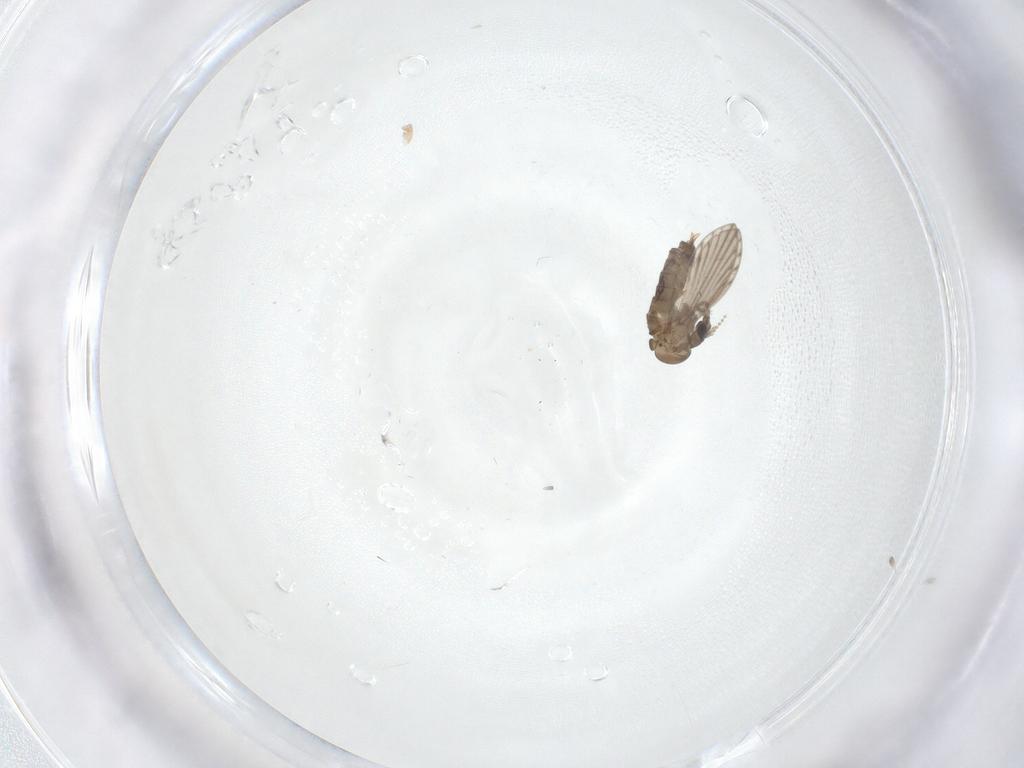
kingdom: Animalia
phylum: Arthropoda
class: Insecta
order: Diptera
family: Psychodidae
